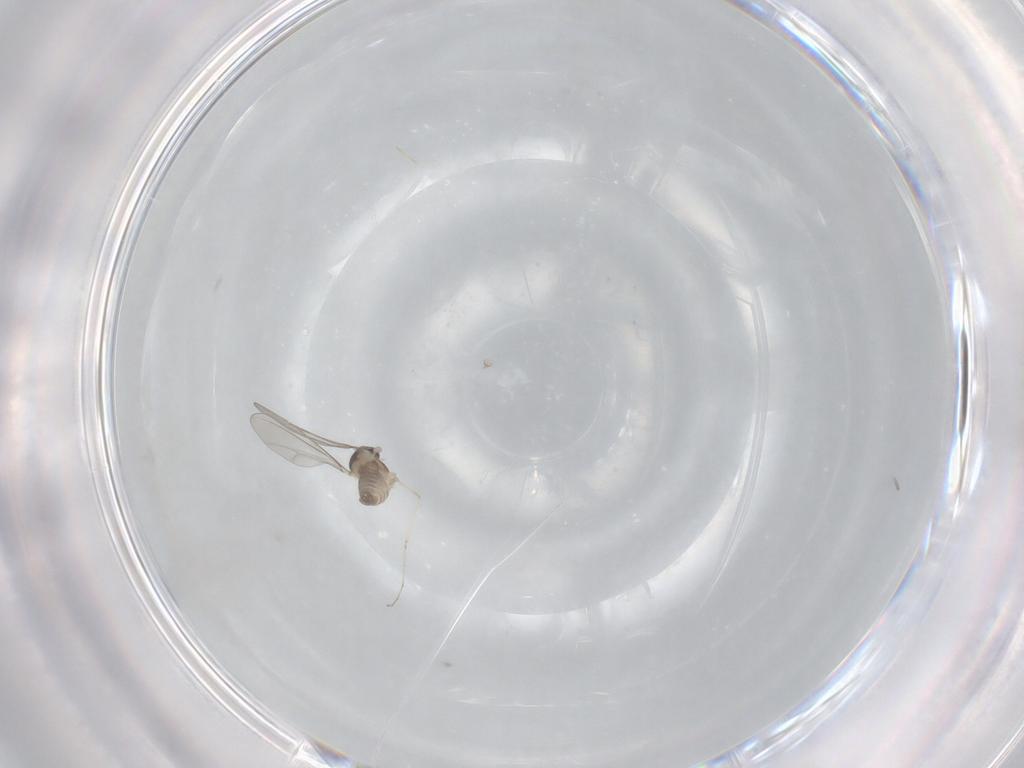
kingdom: Animalia
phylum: Arthropoda
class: Insecta
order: Diptera
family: Cecidomyiidae
